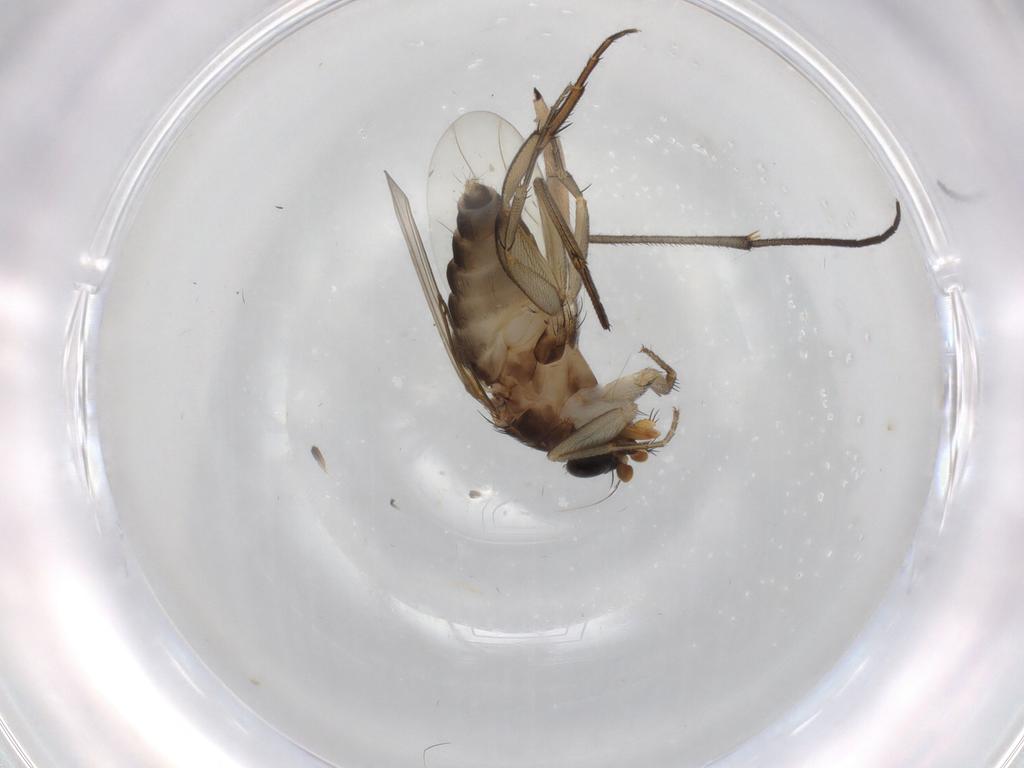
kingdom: Animalia
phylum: Arthropoda
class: Insecta
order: Diptera
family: Phoridae
